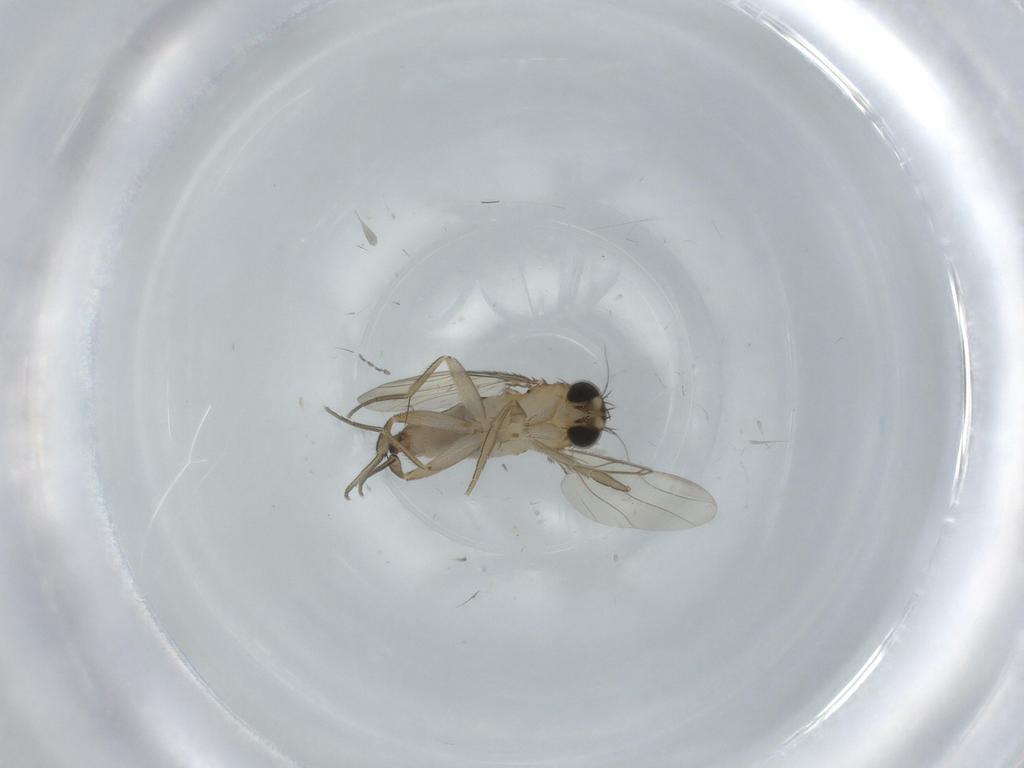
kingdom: Animalia
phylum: Arthropoda
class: Insecta
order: Diptera
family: Cecidomyiidae
